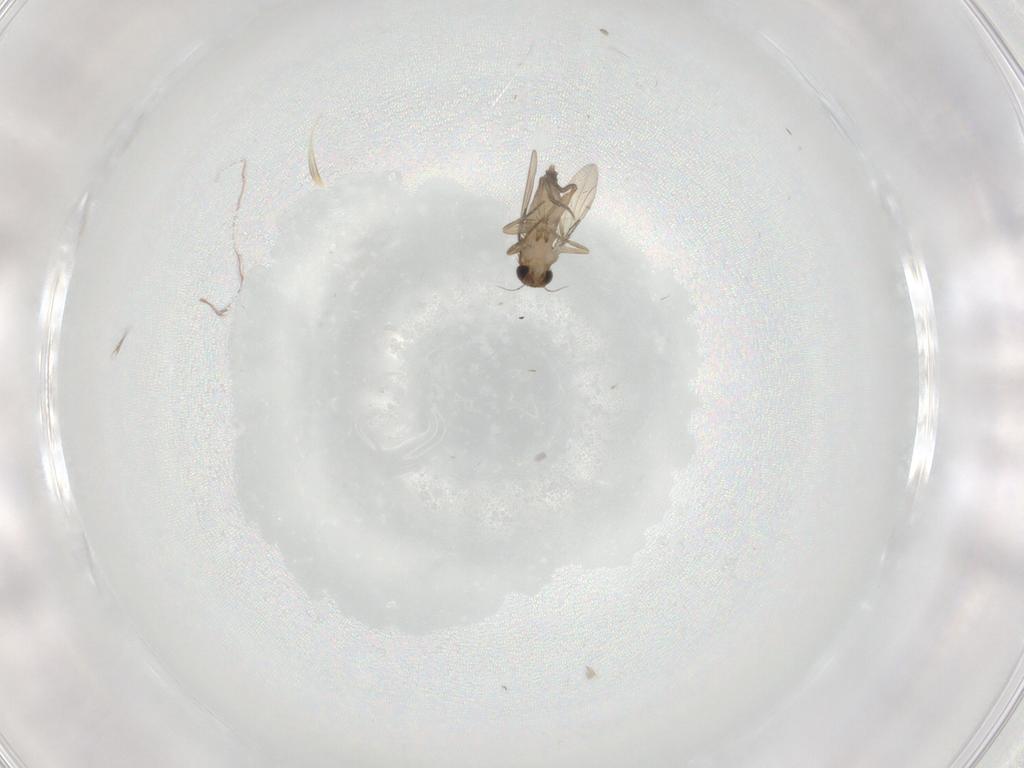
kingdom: Animalia
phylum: Arthropoda
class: Insecta
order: Diptera
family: Phoridae
